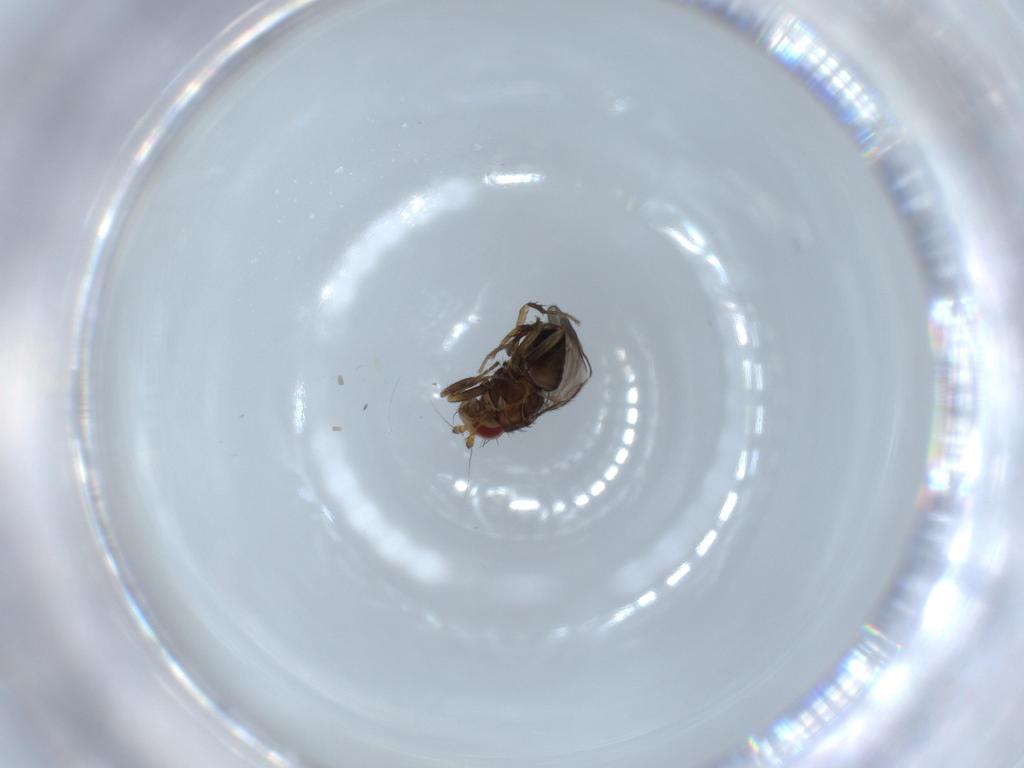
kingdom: Animalia
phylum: Arthropoda
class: Insecta
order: Diptera
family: Sphaeroceridae
